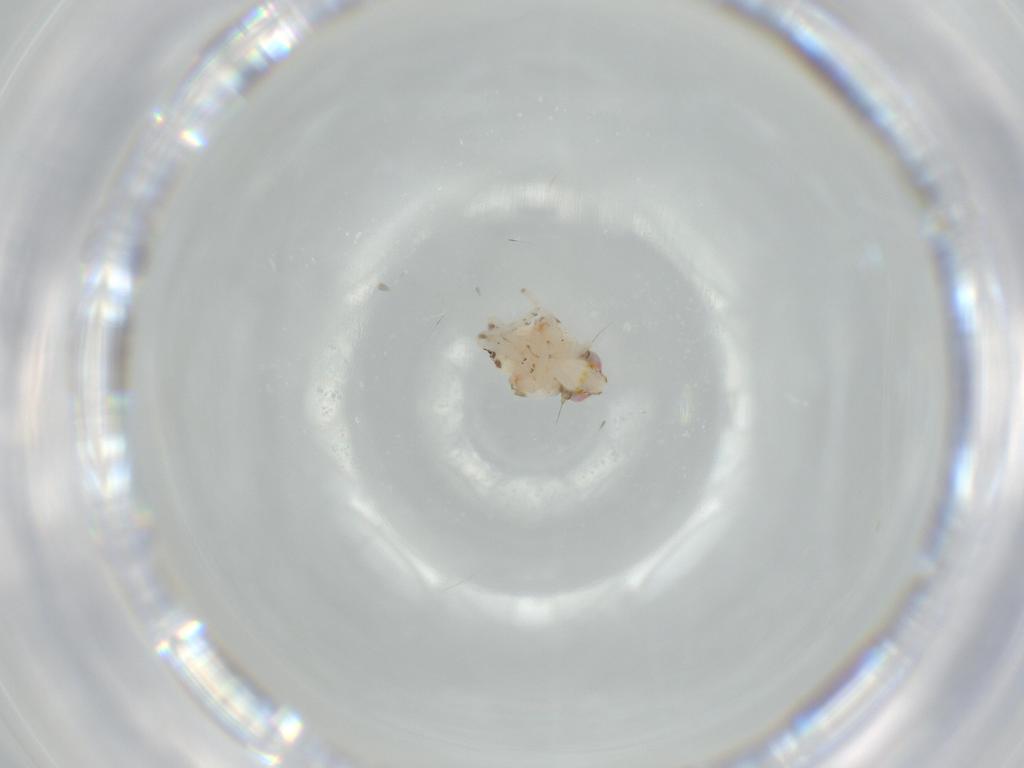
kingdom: Animalia
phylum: Arthropoda
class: Insecta
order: Hemiptera
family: Nogodinidae
